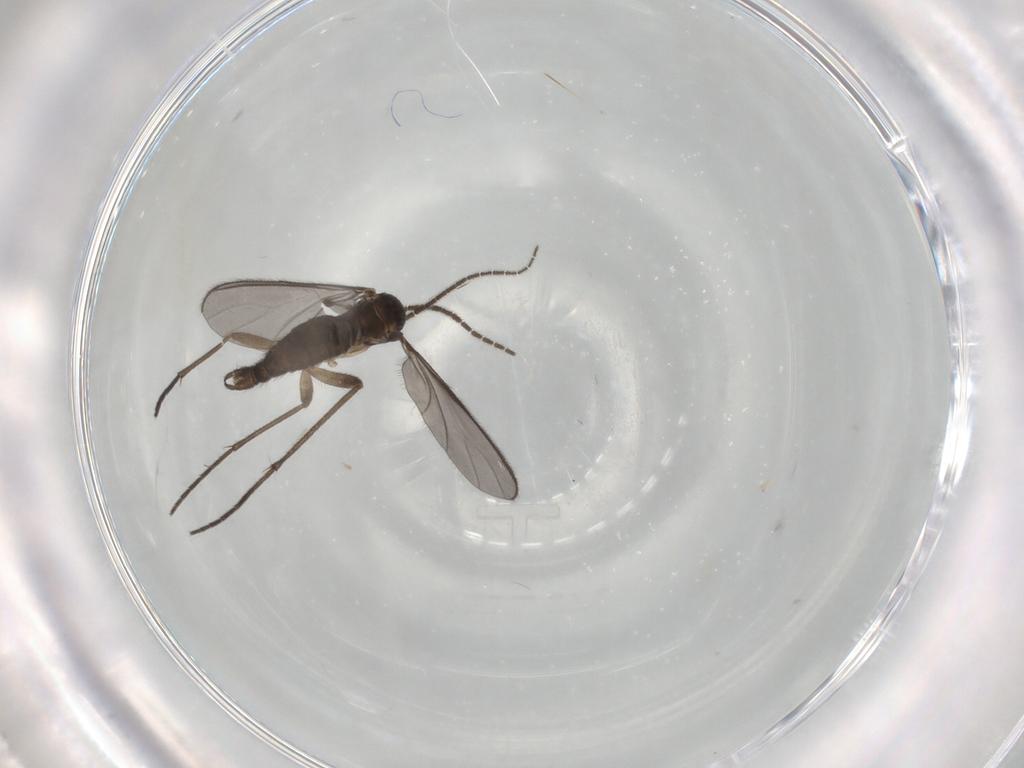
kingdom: Animalia
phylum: Arthropoda
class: Insecta
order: Diptera
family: Sciaridae
